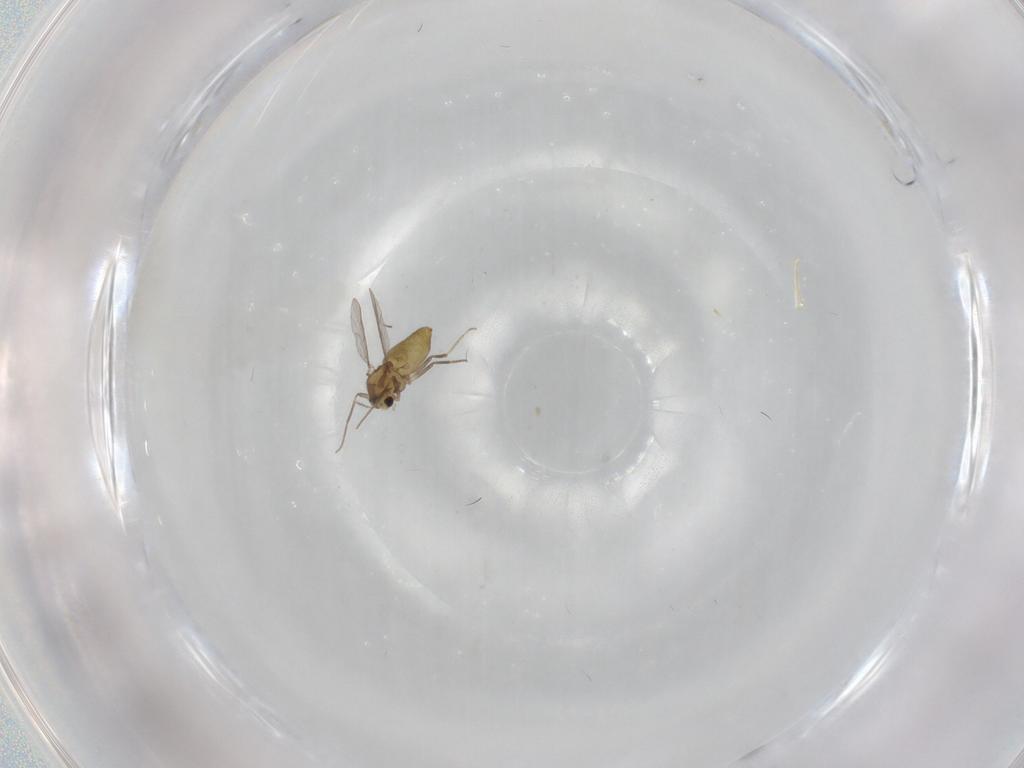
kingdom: Animalia
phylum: Arthropoda
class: Insecta
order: Diptera
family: Chironomidae
